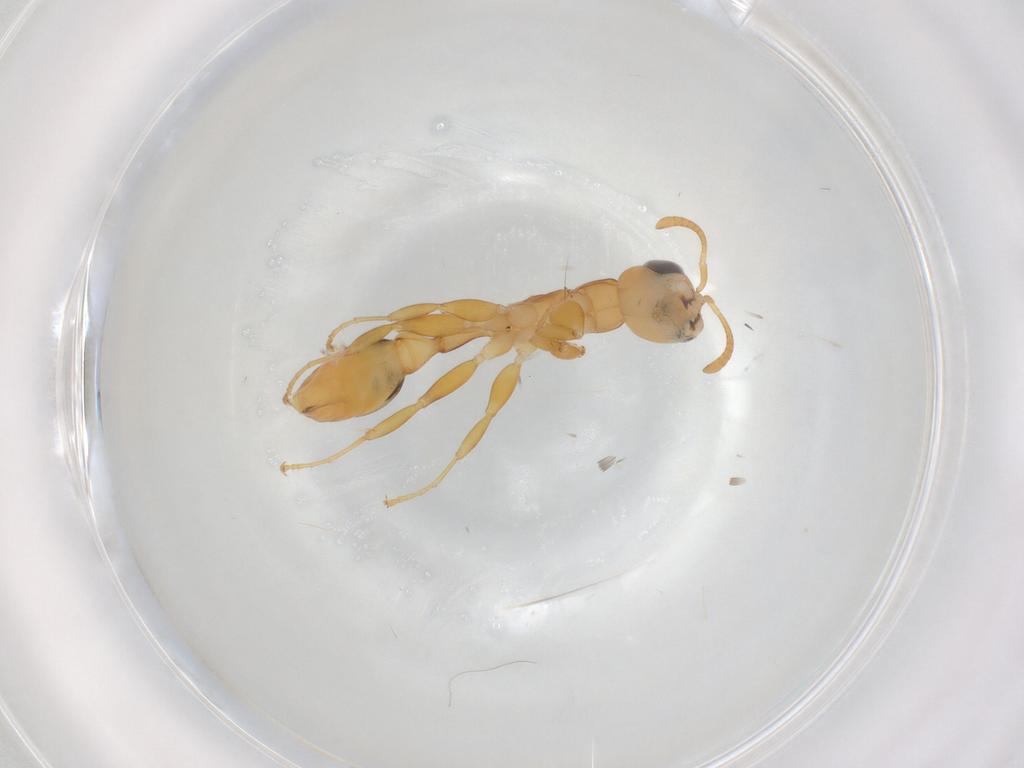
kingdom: Animalia
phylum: Arthropoda
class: Insecta
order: Hymenoptera
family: Formicidae
